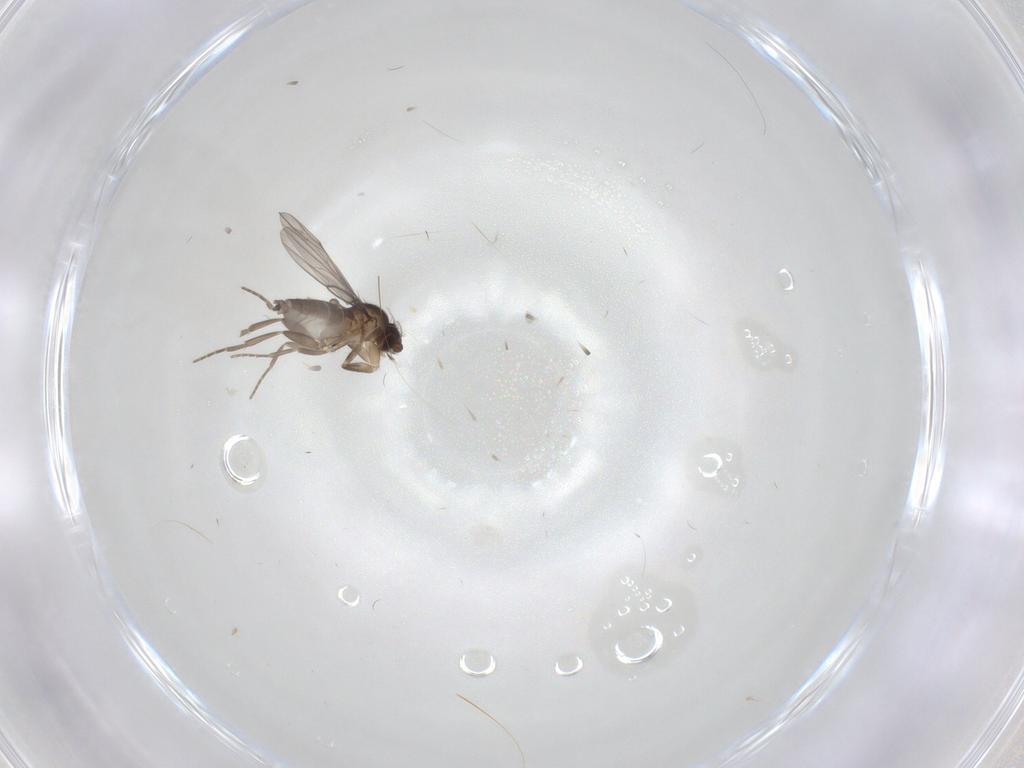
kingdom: Animalia
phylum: Arthropoda
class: Insecta
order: Diptera
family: Phoridae
